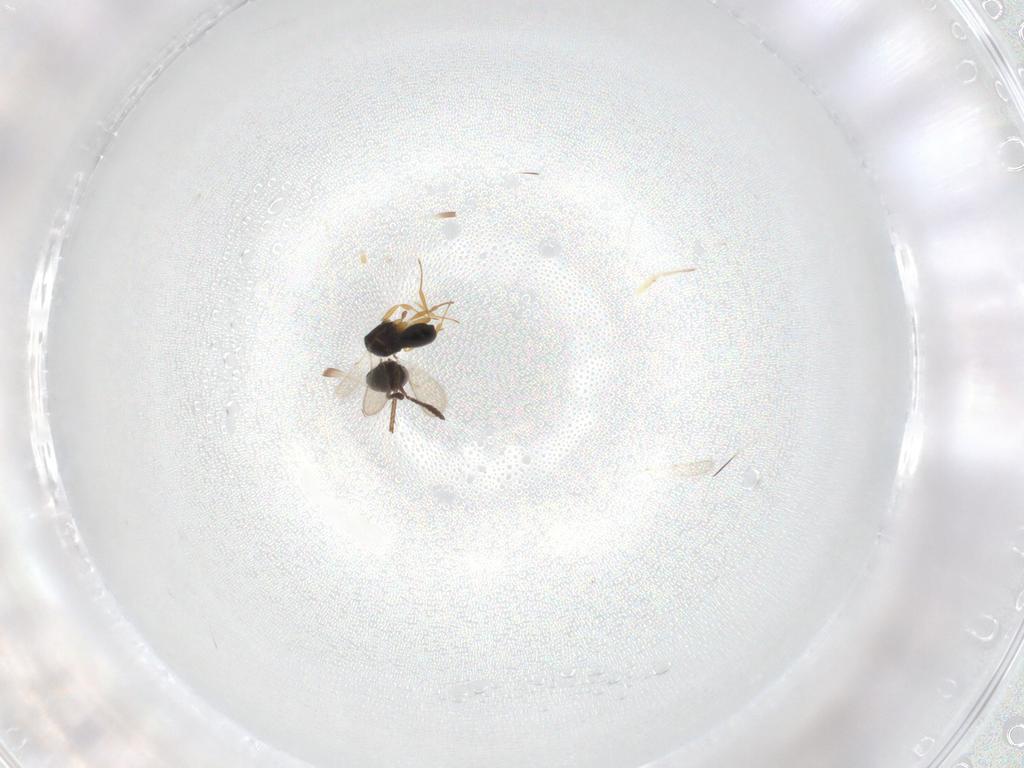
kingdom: Animalia
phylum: Arthropoda
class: Insecta
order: Hymenoptera
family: Scelionidae
